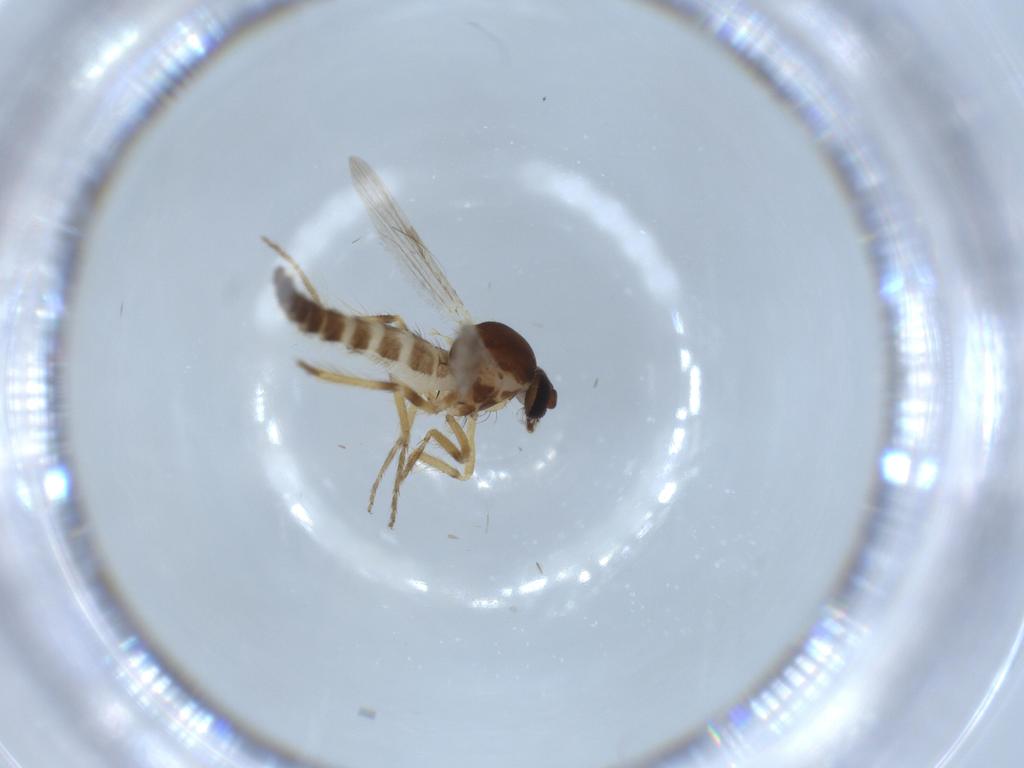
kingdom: Animalia
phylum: Arthropoda
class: Insecta
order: Diptera
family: Ceratopogonidae
